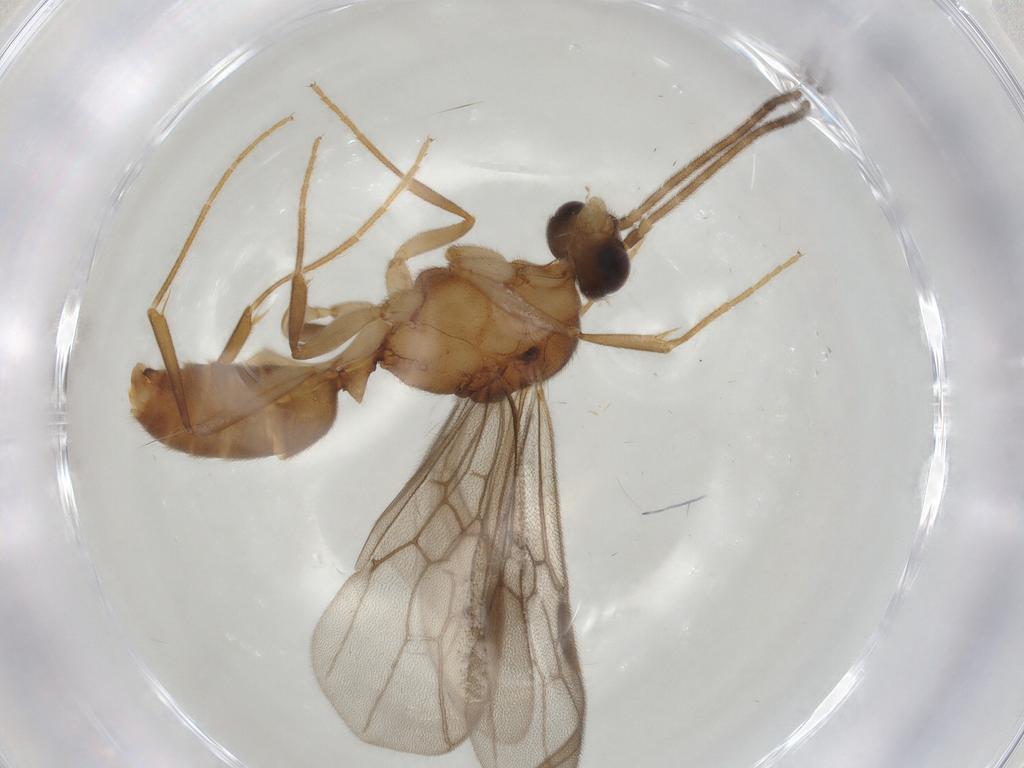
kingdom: Animalia
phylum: Arthropoda
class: Insecta
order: Hymenoptera
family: Formicidae
